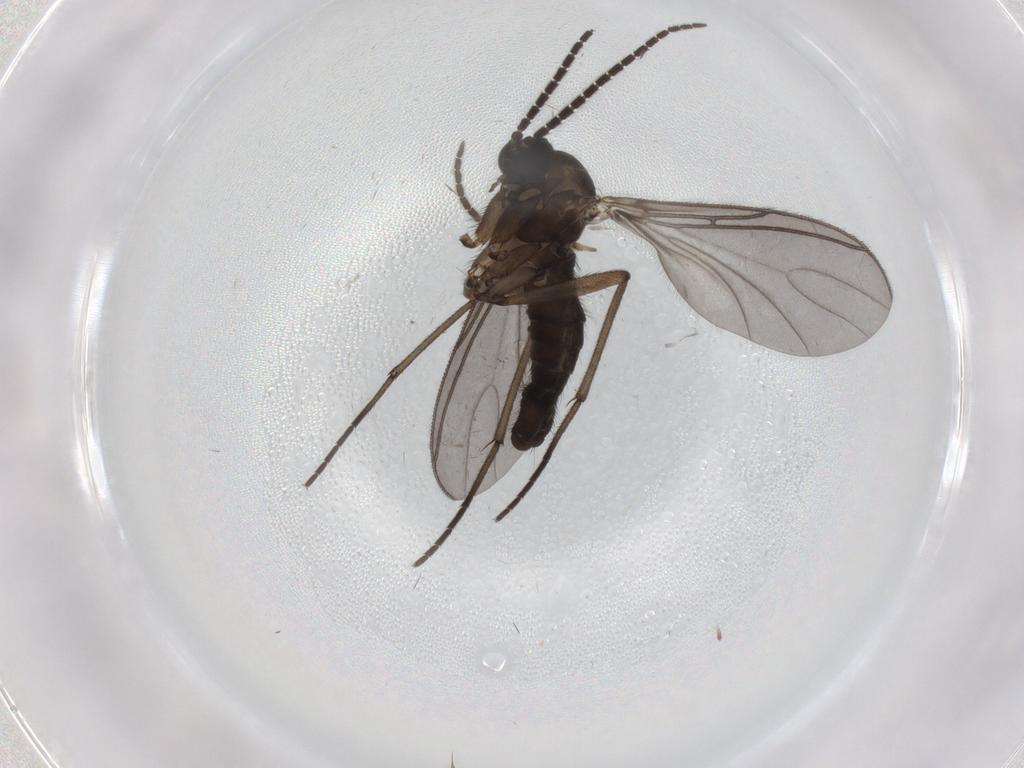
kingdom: Animalia
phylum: Arthropoda
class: Insecta
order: Diptera
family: Sciaridae
